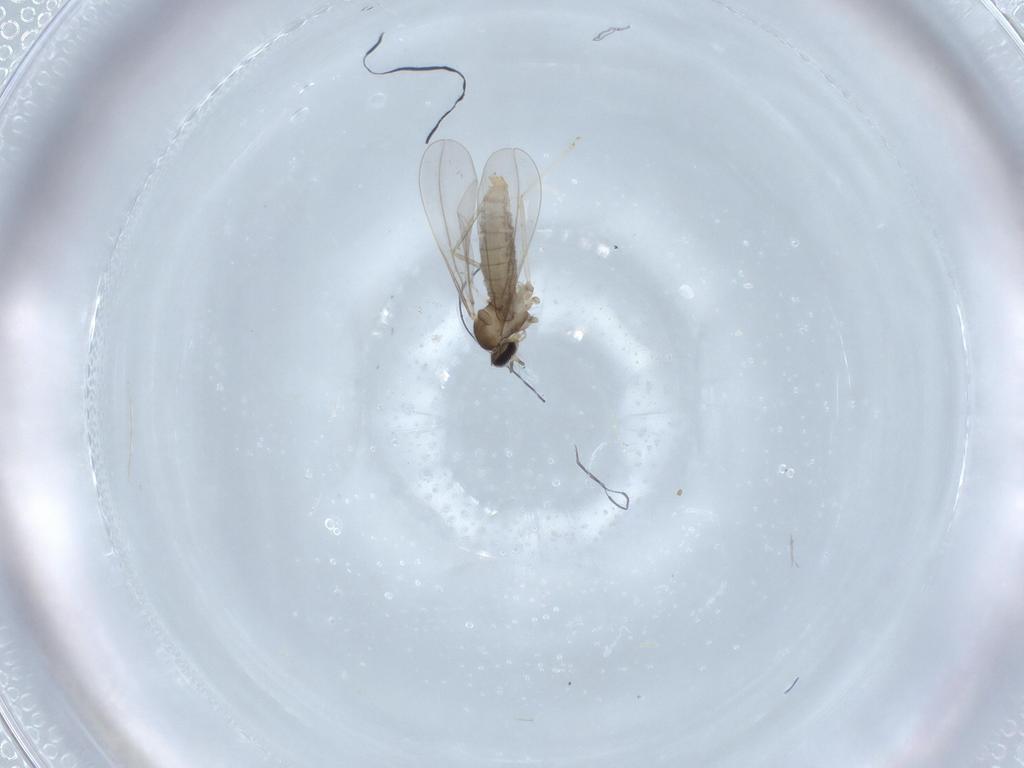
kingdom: Animalia
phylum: Arthropoda
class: Insecta
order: Diptera
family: Cecidomyiidae
